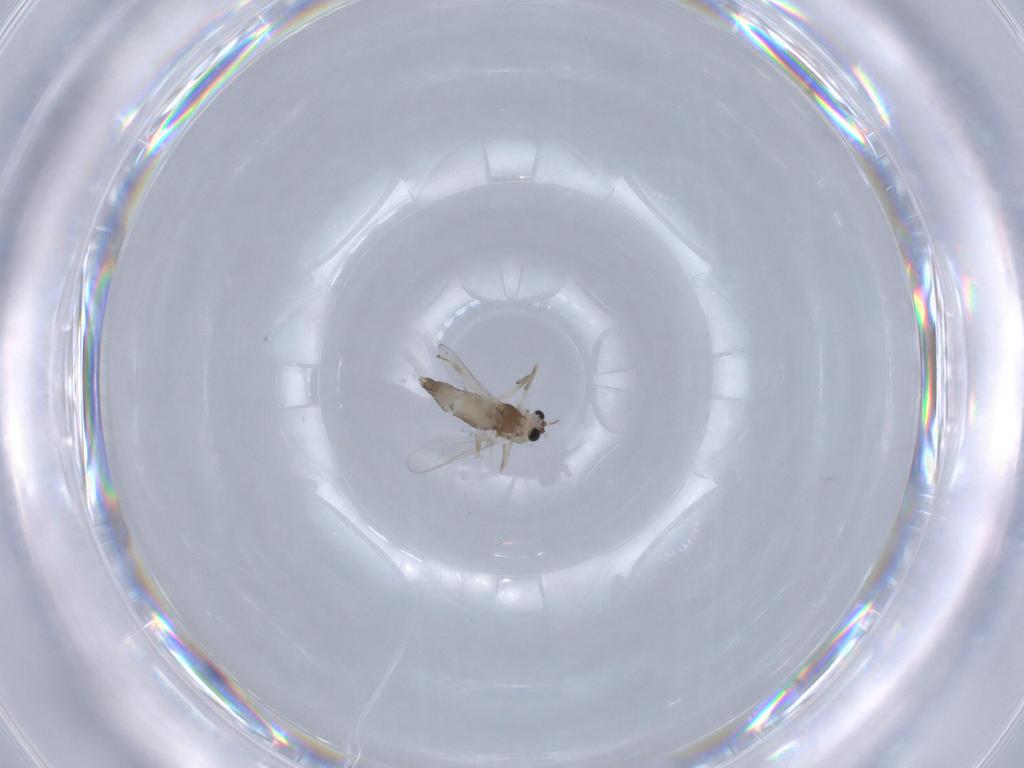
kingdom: Animalia
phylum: Arthropoda
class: Insecta
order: Diptera
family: Chironomidae
